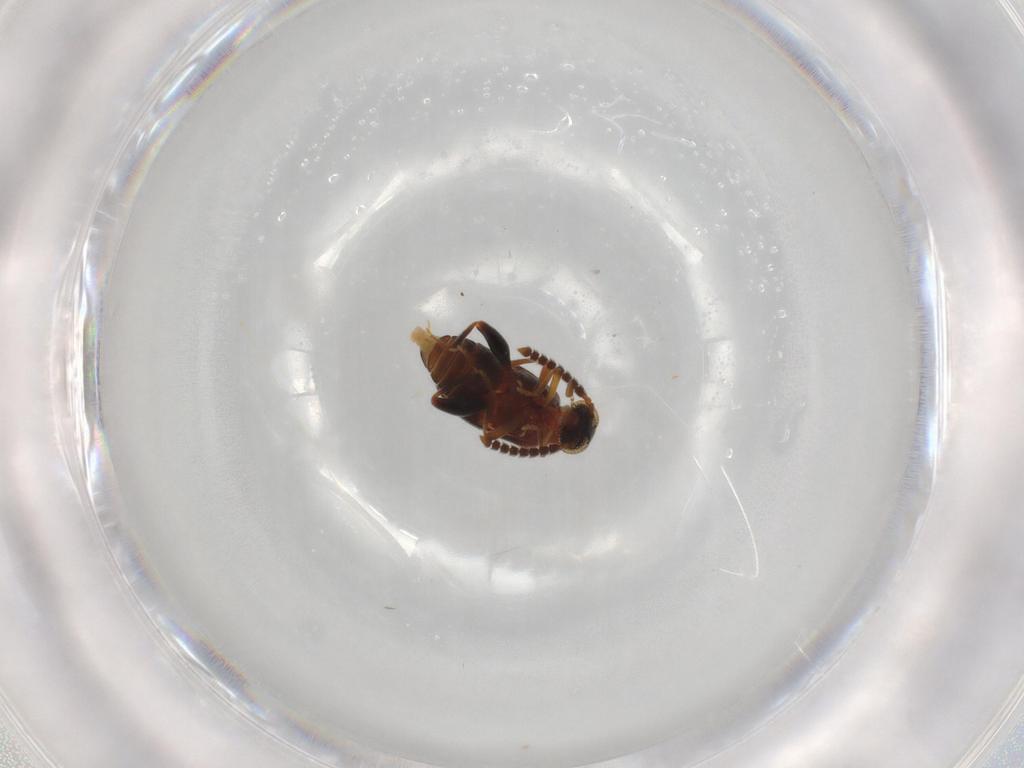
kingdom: Animalia
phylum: Arthropoda
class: Insecta
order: Coleoptera
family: Aderidae
